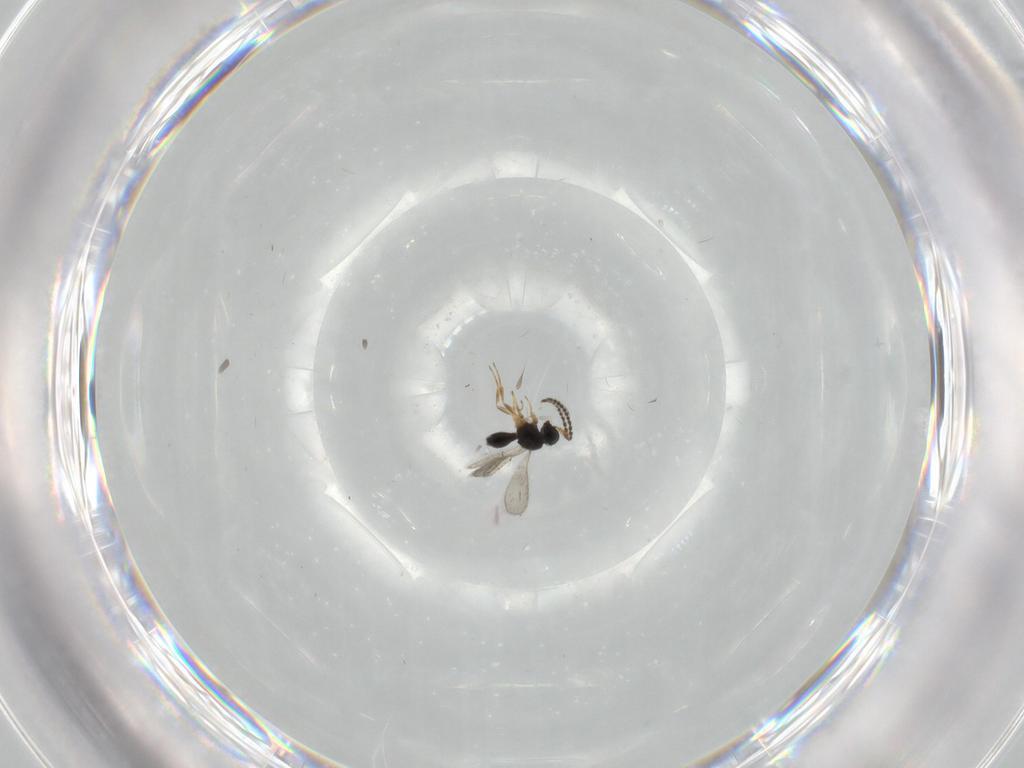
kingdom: Animalia
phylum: Arthropoda
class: Insecta
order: Hymenoptera
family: Scelionidae
